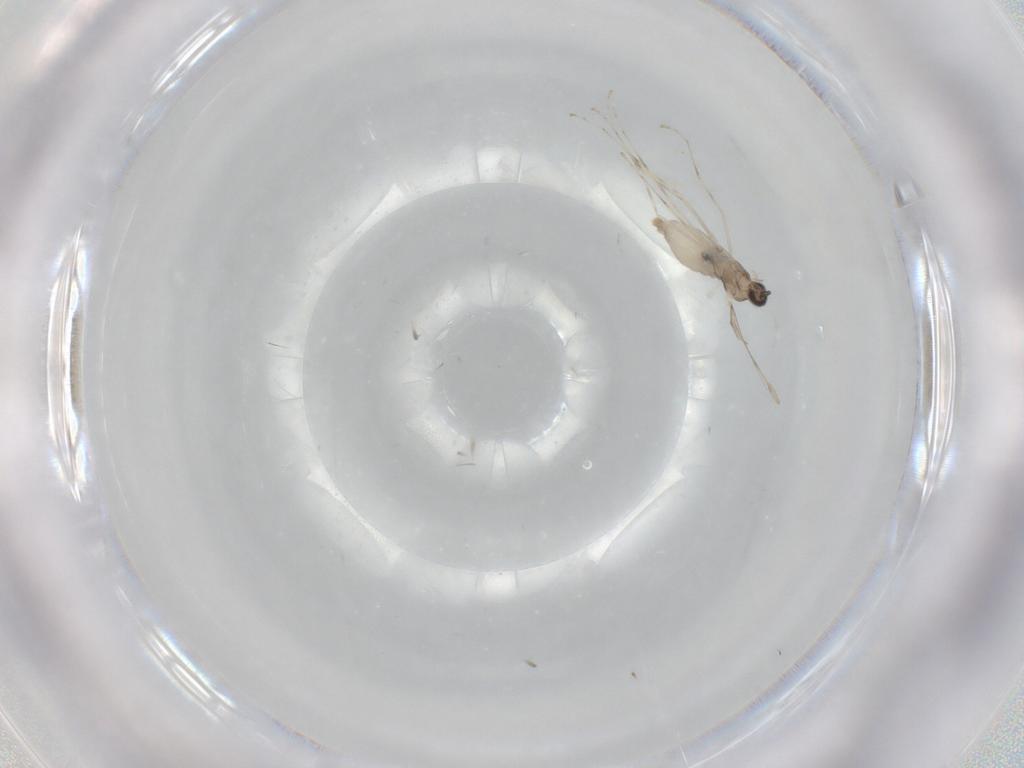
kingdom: Animalia
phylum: Arthropoda
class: Insecta
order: Diptera
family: Cecidomyiidae
